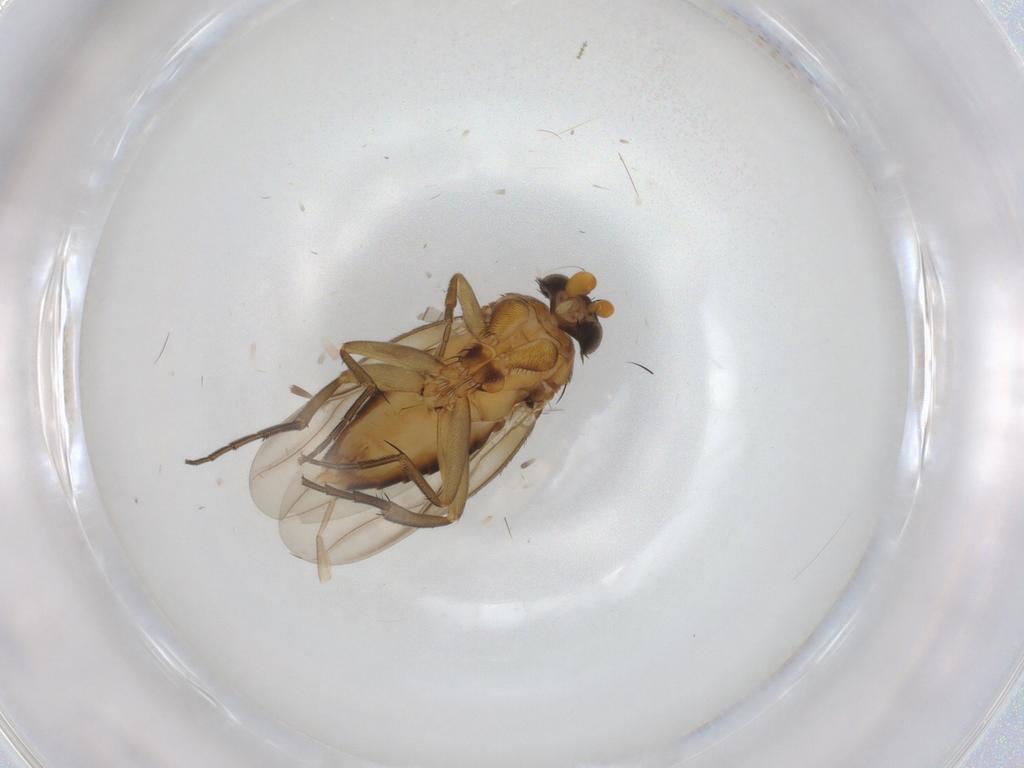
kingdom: Animalia
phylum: Arthropoda
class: Insecta
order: Diptera
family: Phoridae
